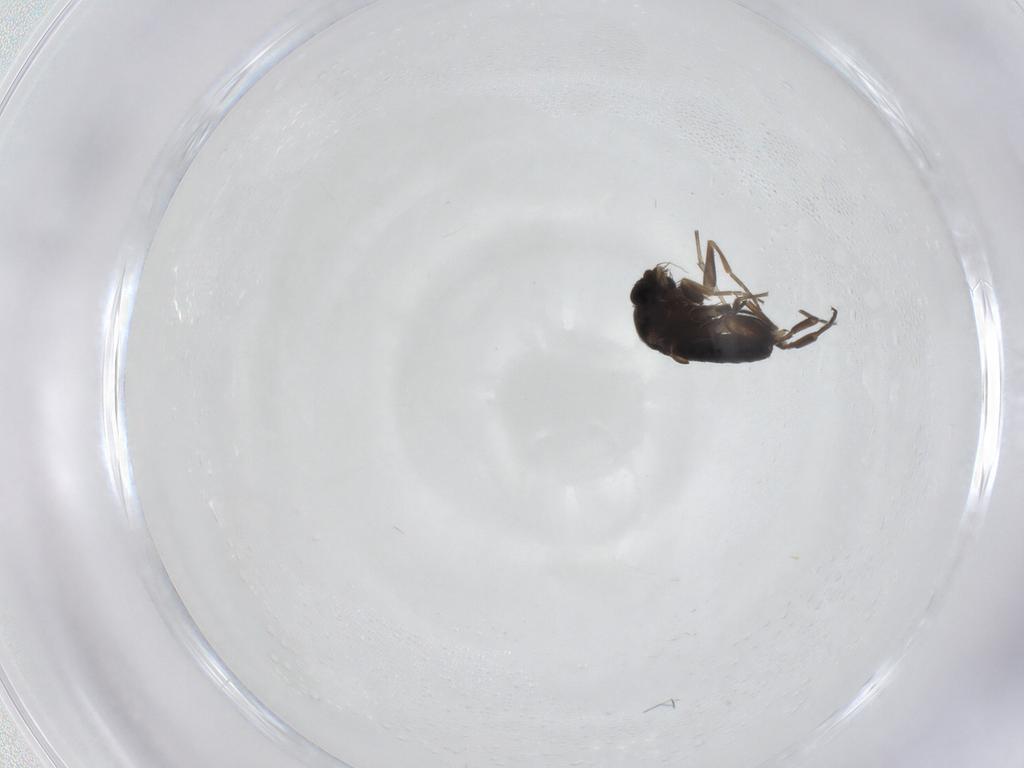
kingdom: Animalia
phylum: Arthropoda
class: Insecta
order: Diptera
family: Phoridae
